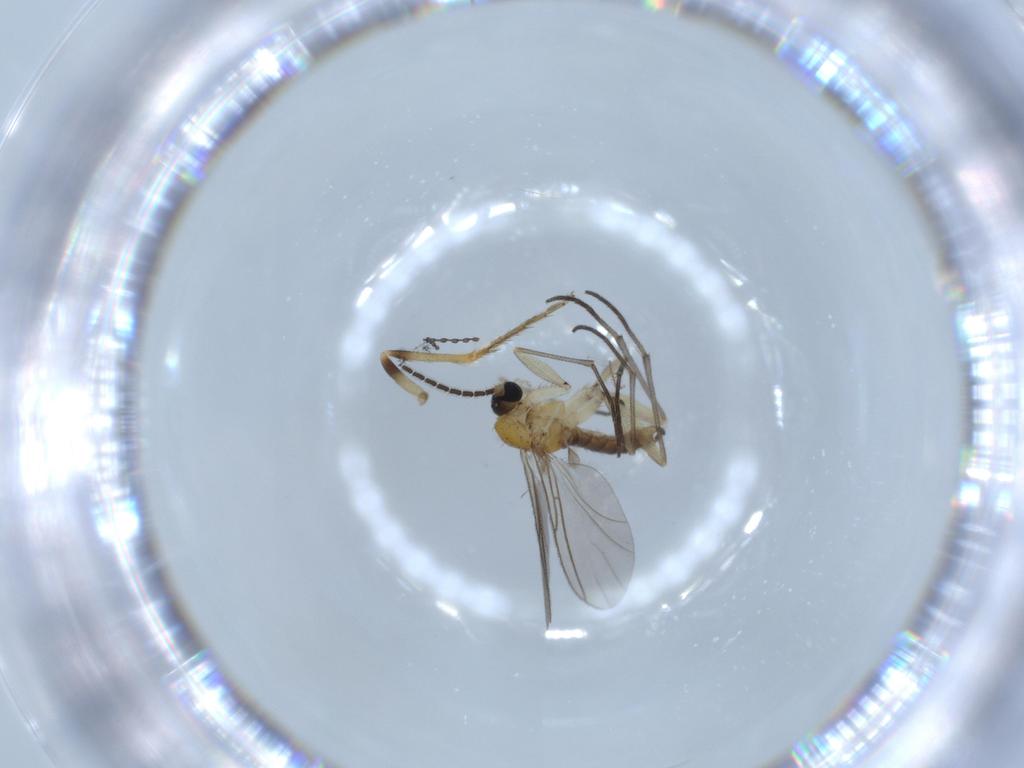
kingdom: Animalia
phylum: Arthropoda
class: Insecta
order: Diptera
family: Ceratopogonidae
